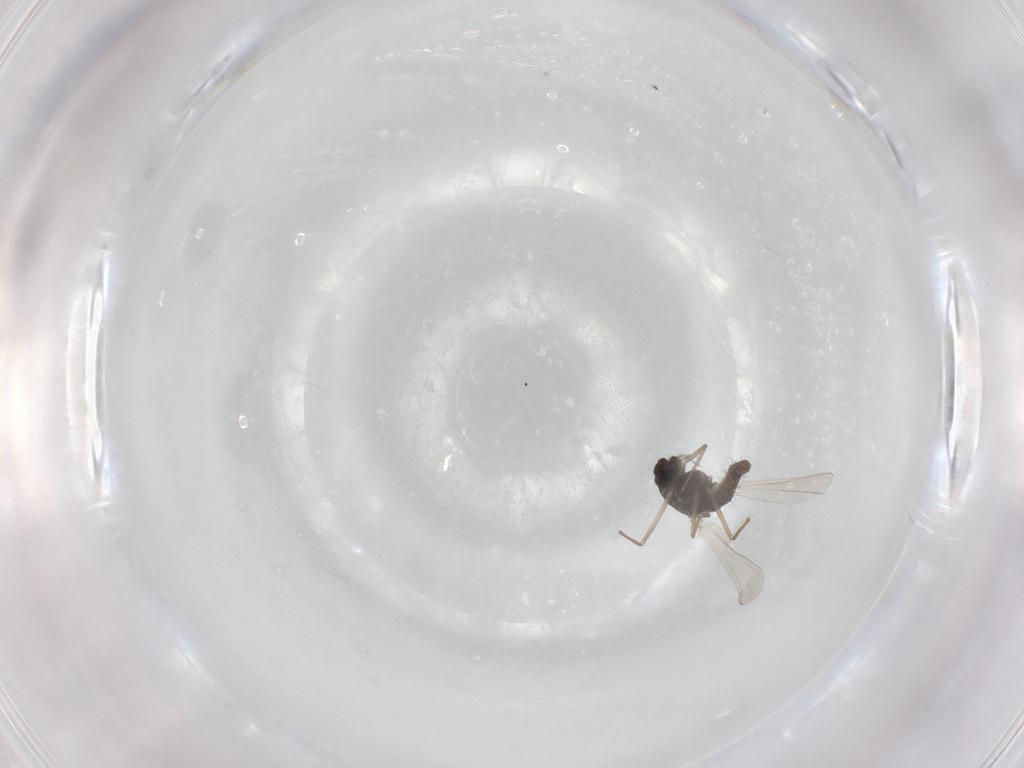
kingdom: Animalia
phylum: Arthropoda
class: Insecta
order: Diptera
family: Chironomidae
